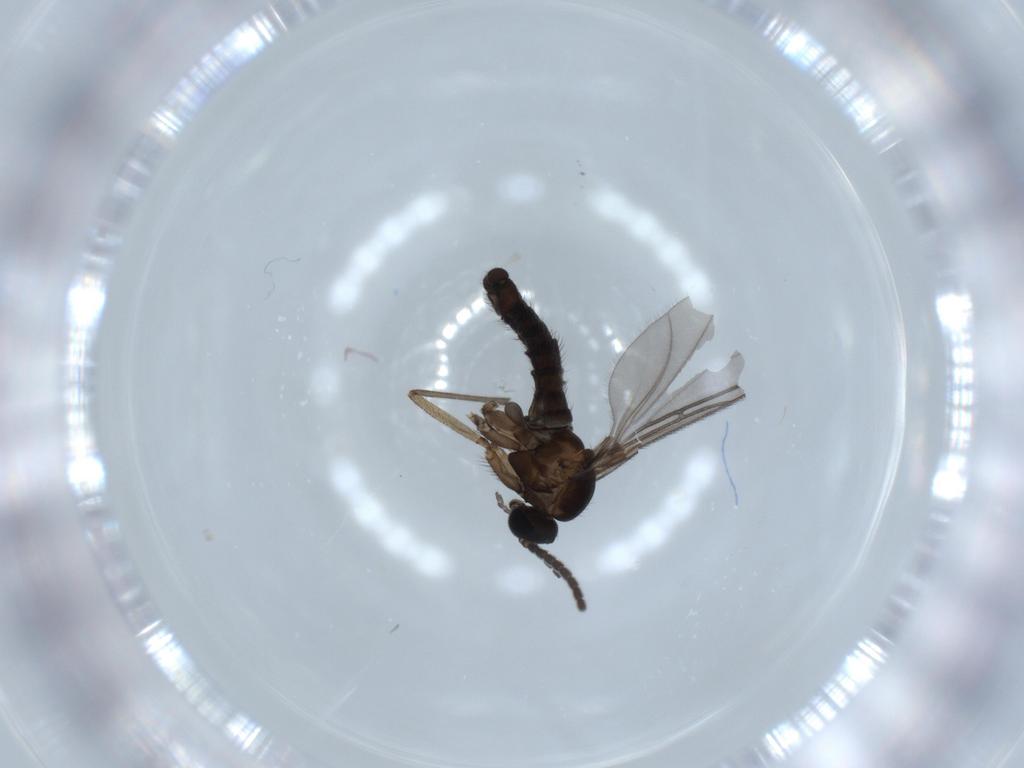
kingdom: Animalia
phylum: Arthropoda
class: Insecta
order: Diptera
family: Sciaridae
